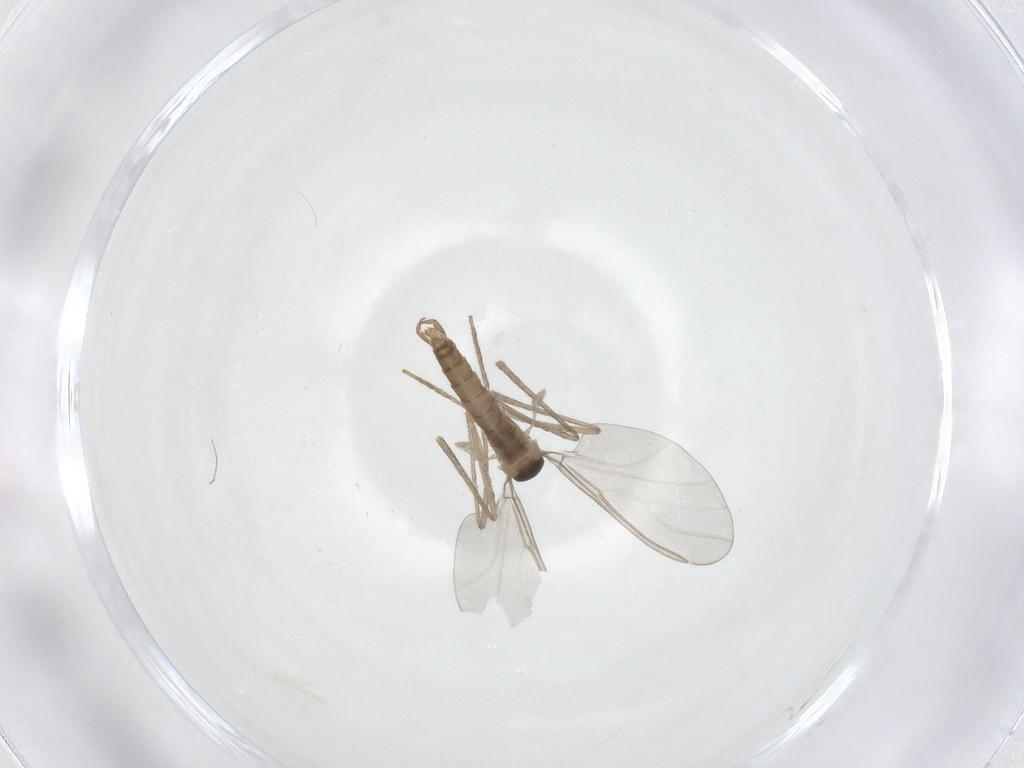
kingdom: Animalia
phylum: Arthropoda
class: Insecta
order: Diptera
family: Cecidomyiidae
